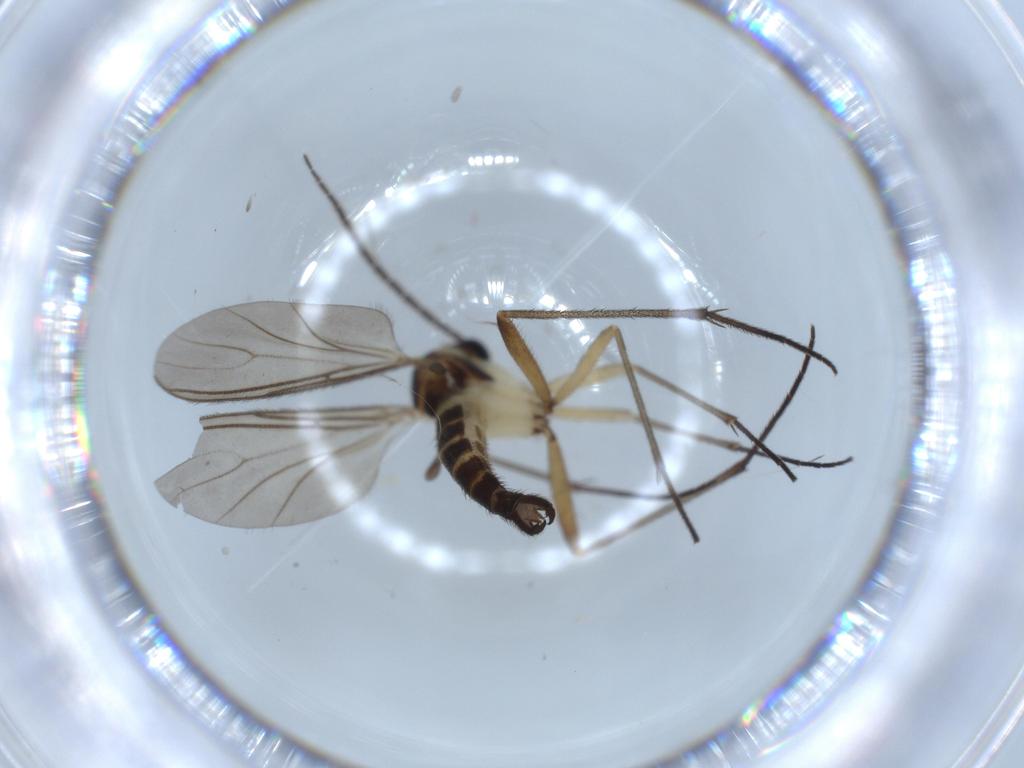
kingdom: Animalia
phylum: Arthropoda
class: Insecta
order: Diptera
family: Sciaridae
